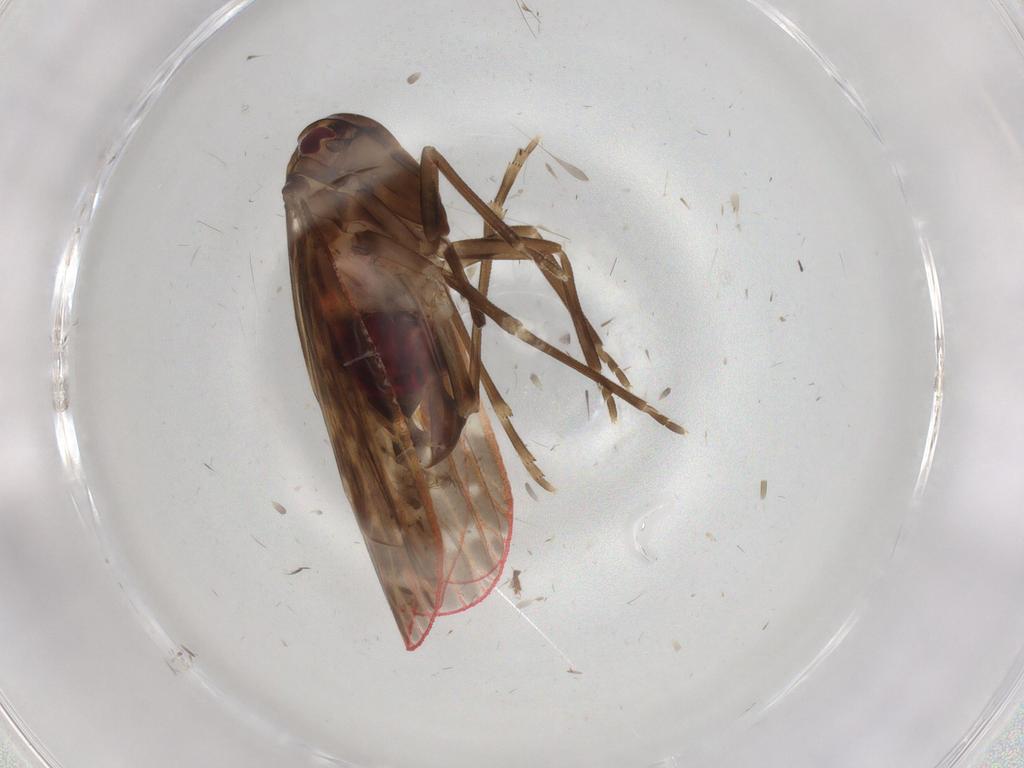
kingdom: Animalia
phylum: Arthropoda
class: Insecta
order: Hemiptera
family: Achilidae
